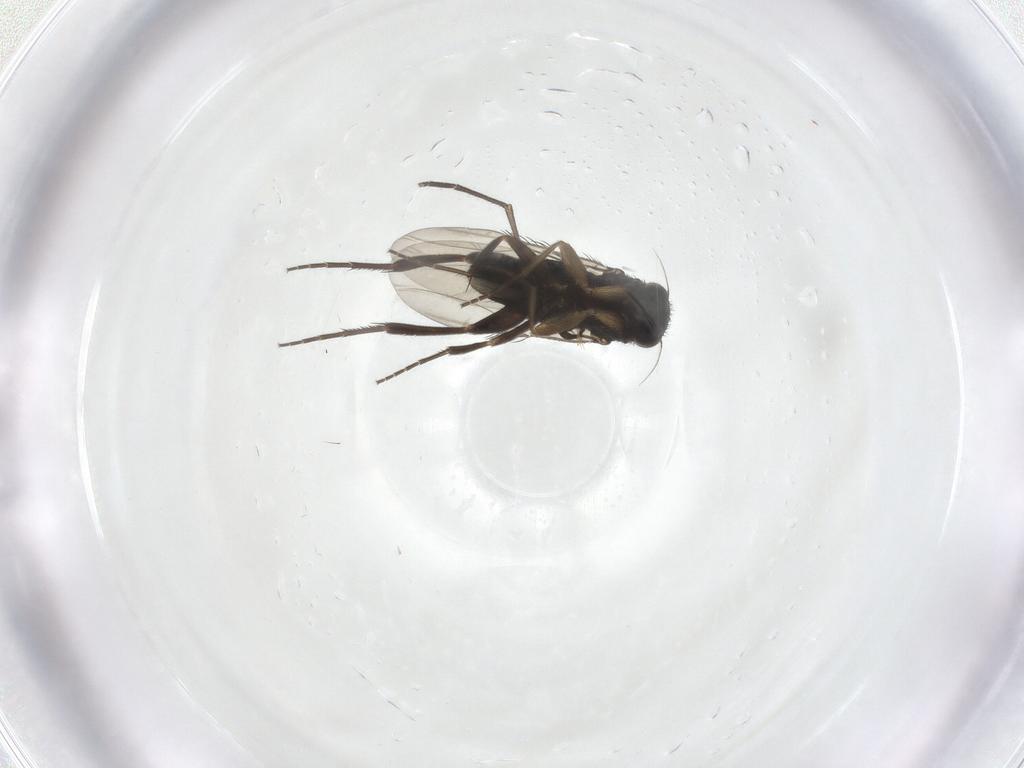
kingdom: Animalia
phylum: Arthropoda
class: Insecta
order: Diptera
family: Phoridae
